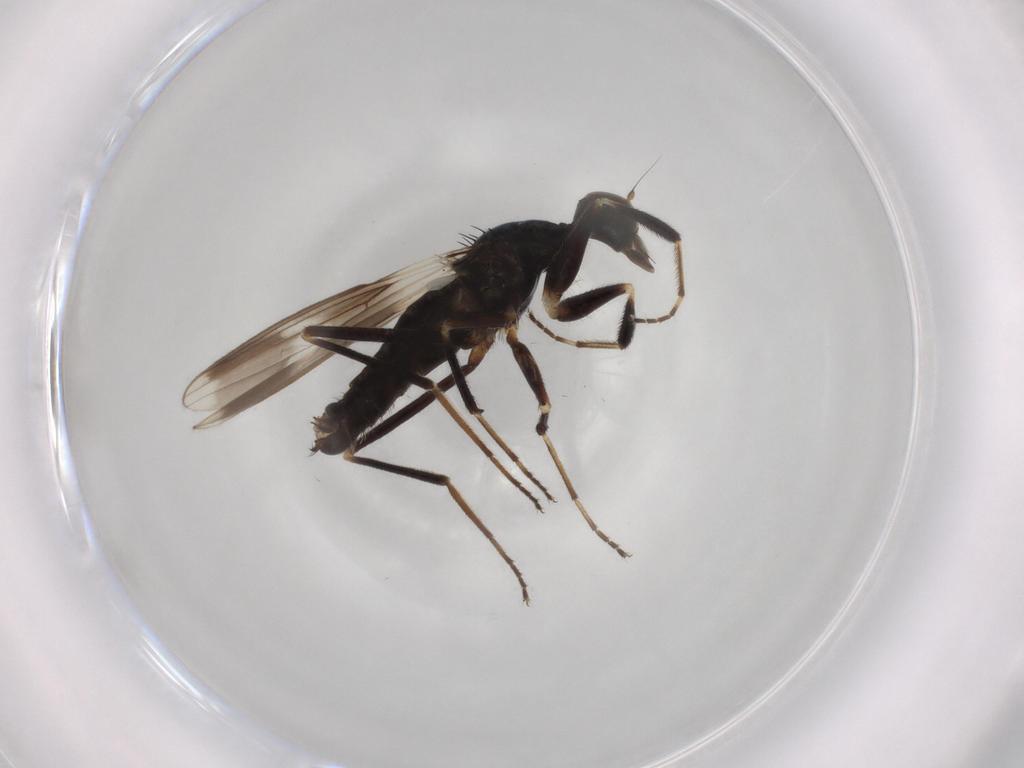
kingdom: Animalia
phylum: Arthropoda
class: Insecta
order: Diptera
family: Hybotidae
